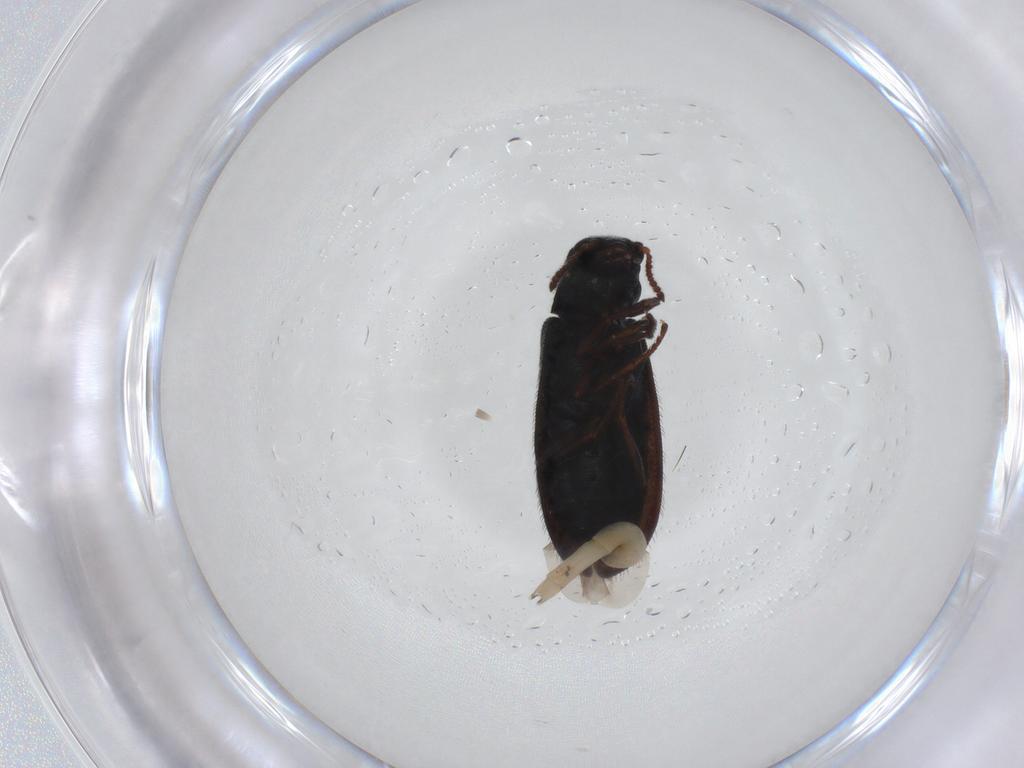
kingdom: Animalia
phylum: Arthropoda
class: Insecta
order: Coleoptera
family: Melyridae
